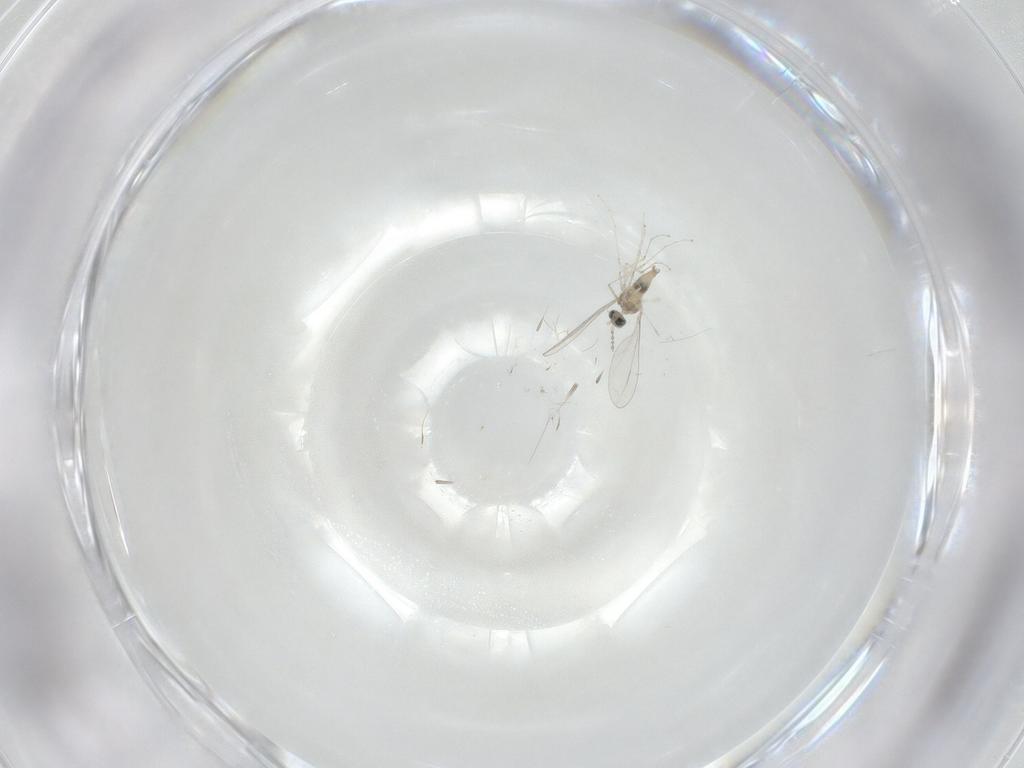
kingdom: Animalia
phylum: Arthropoda
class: Insecta
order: Diptera
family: Cecidomyiidae
